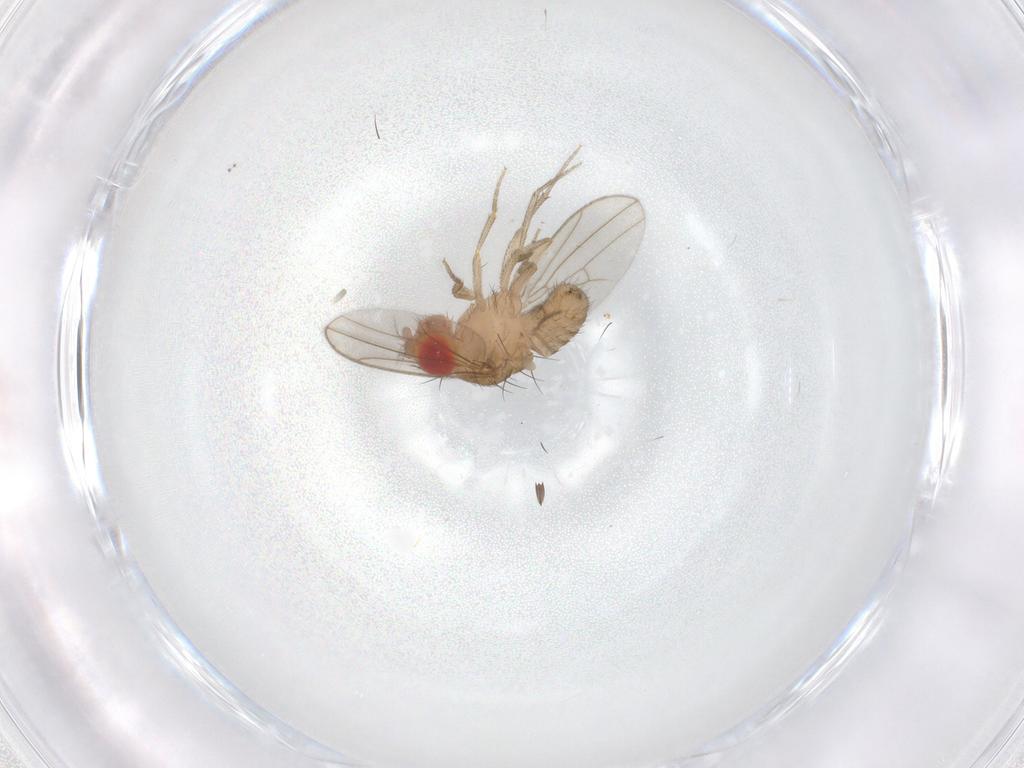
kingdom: Animalia
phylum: Arthropoda
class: Insecta
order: Diptera
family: Drosophilidae
